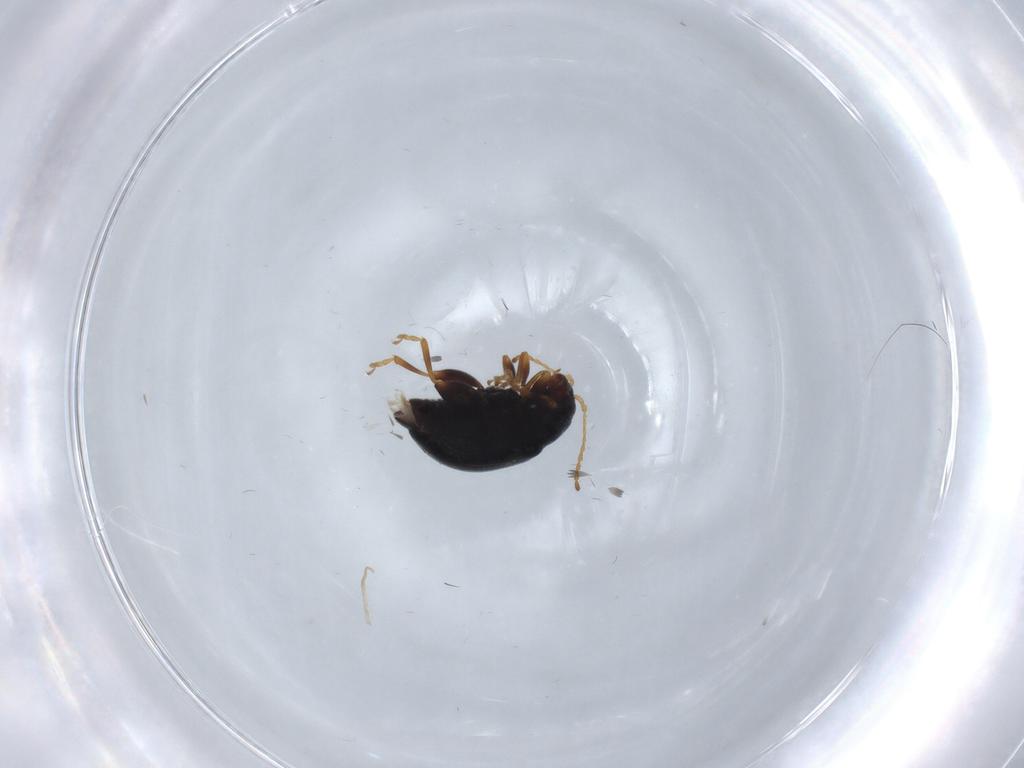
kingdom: Animalia
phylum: Arthropoda
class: Insecta
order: Coleoptera
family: Chrysomelidae
